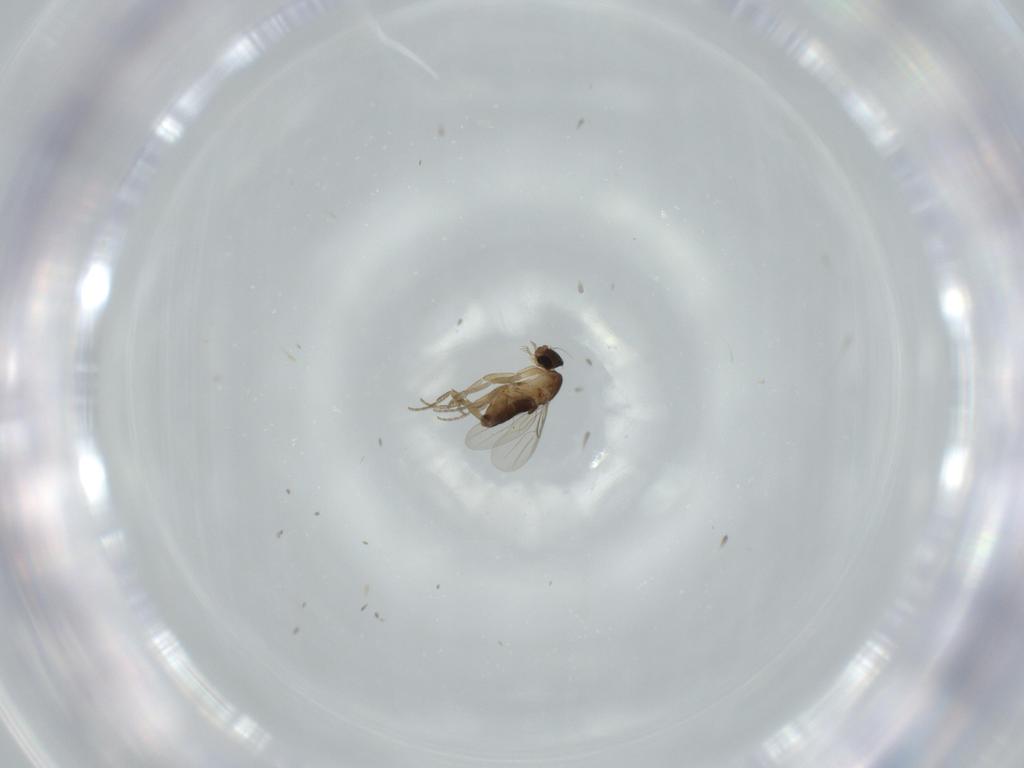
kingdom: Animalia
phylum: Arthropoda
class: Insecta
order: Diptera
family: Phoridae
